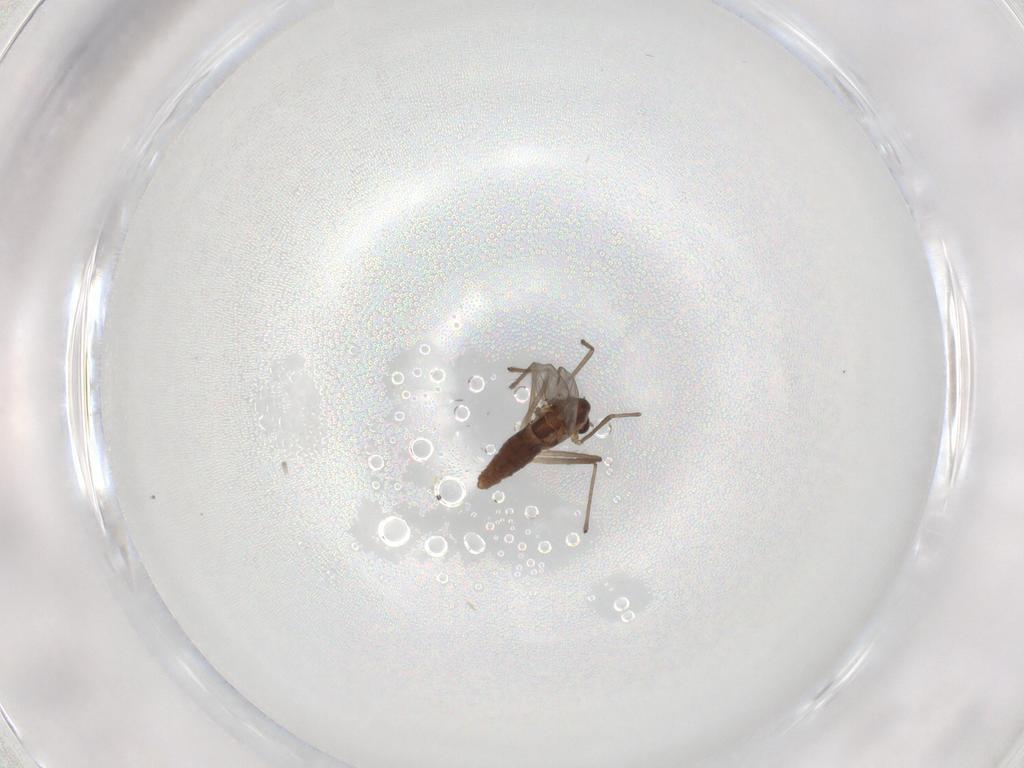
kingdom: Animalia
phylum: Arthropoda
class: Insecta
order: Diptera
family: Chironomidae
